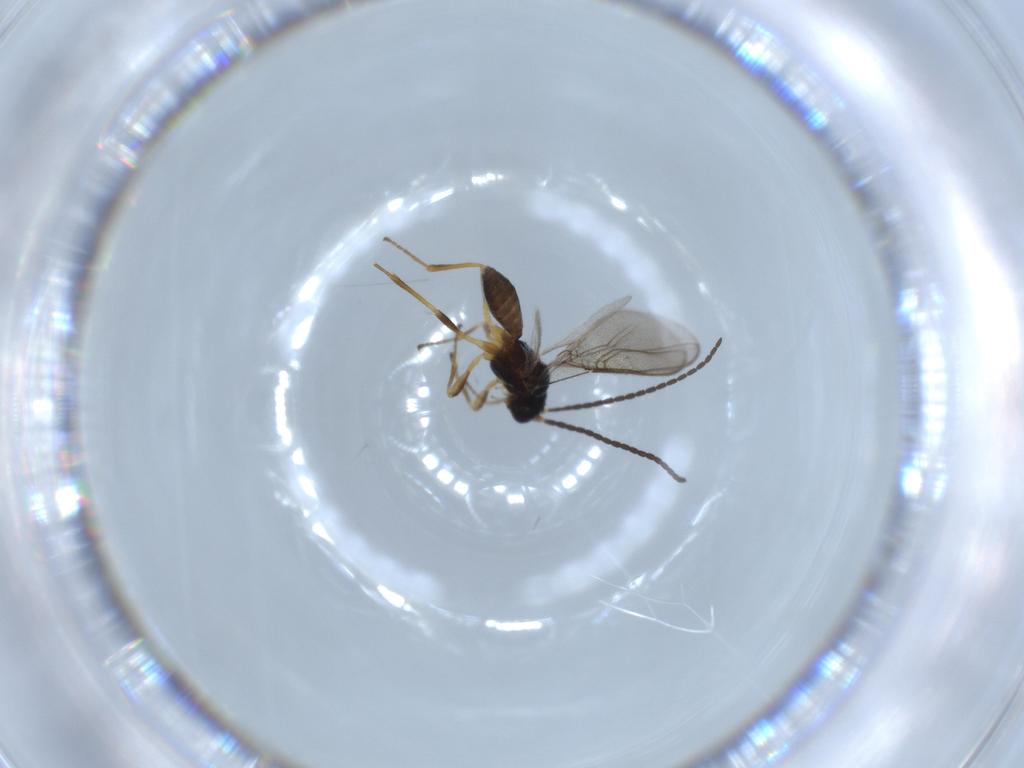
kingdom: Animalia
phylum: Arthropoda
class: Insecta
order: Hymenoptera
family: Braconidae
